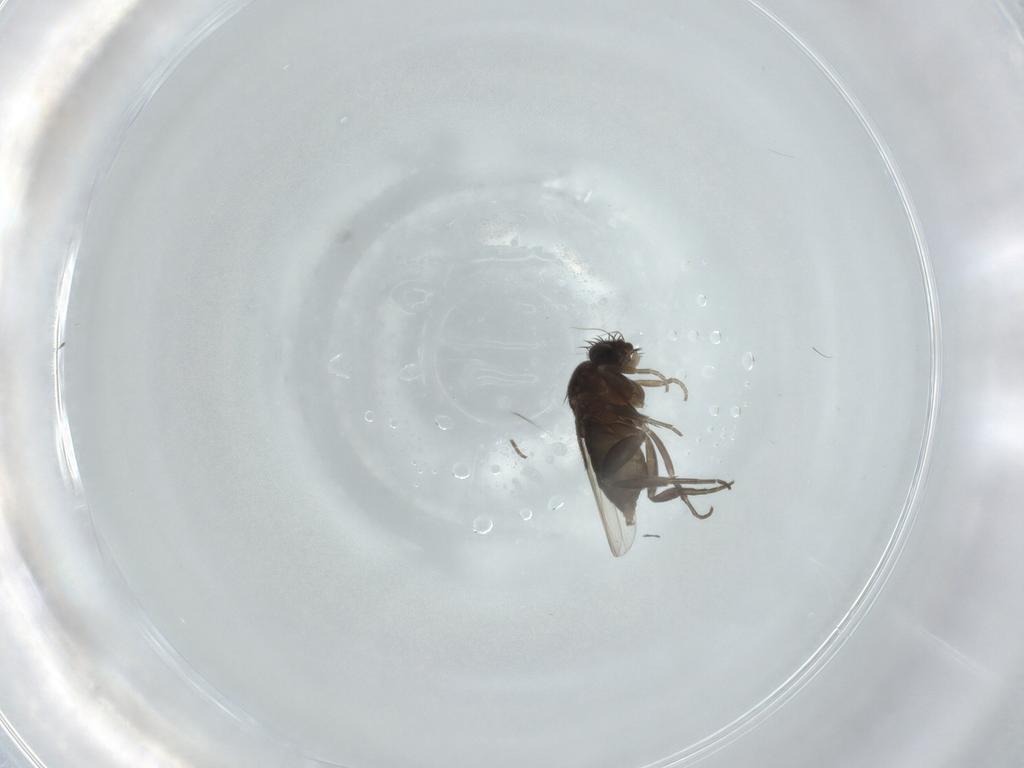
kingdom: Animalia
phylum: Arthropoda
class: Insecta
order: Diptera
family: Phoridae
